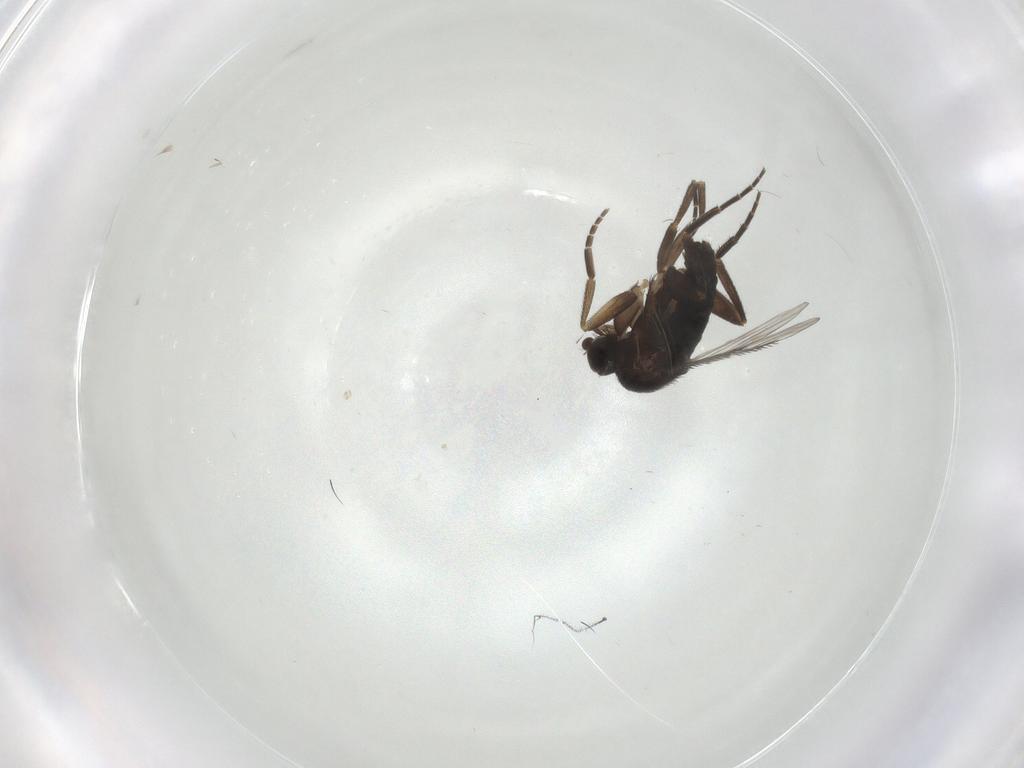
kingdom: Animalia
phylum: Arthropoda
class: Insecta
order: Diptera
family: Phoridae
